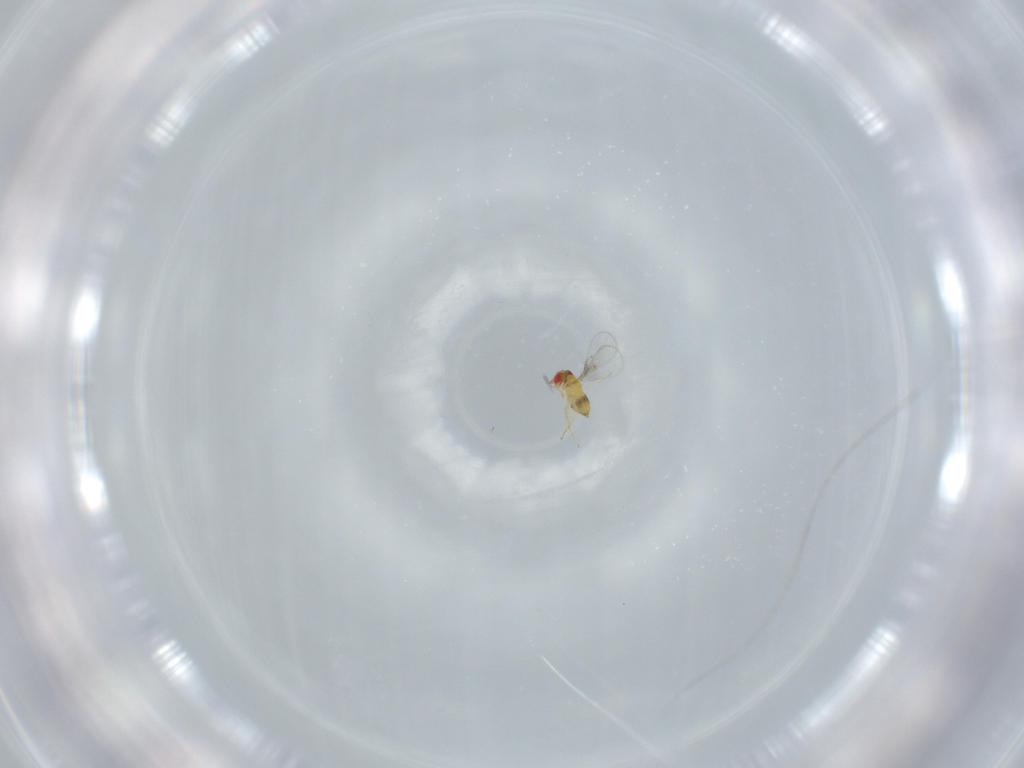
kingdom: Animalia
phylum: Arthropoda
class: Insecta
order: Hymenoptera
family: Trichogrammatidae
